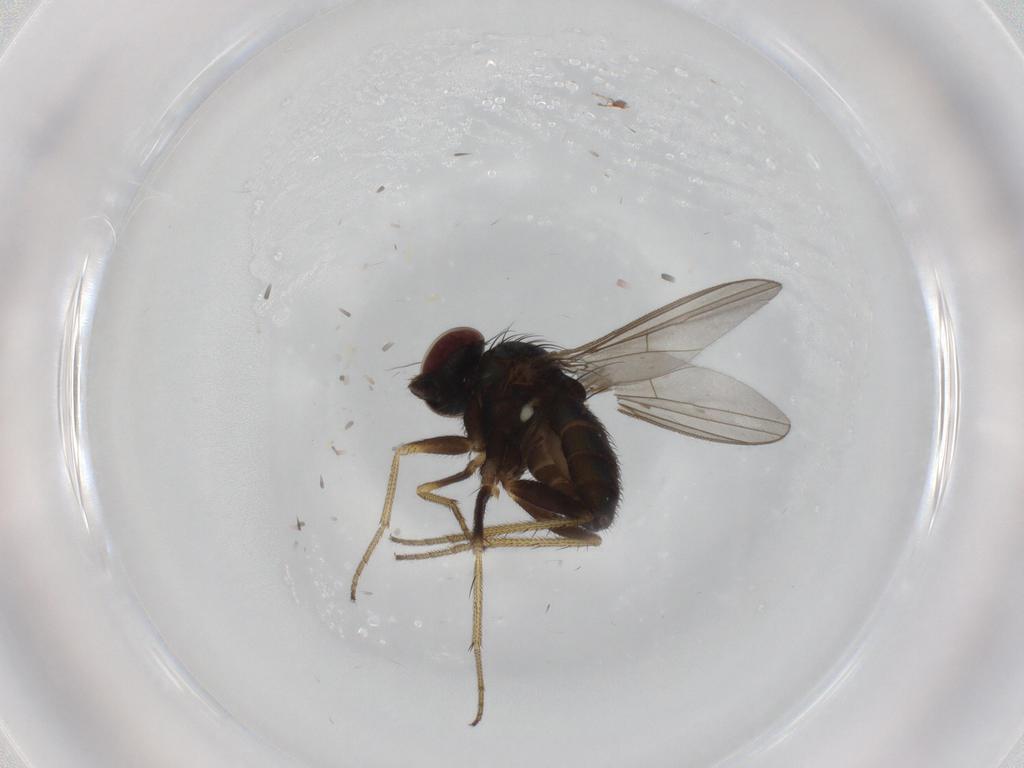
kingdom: Animalia
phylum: Arthropoda
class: Insecta
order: Diptera
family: Dolichopodidae
